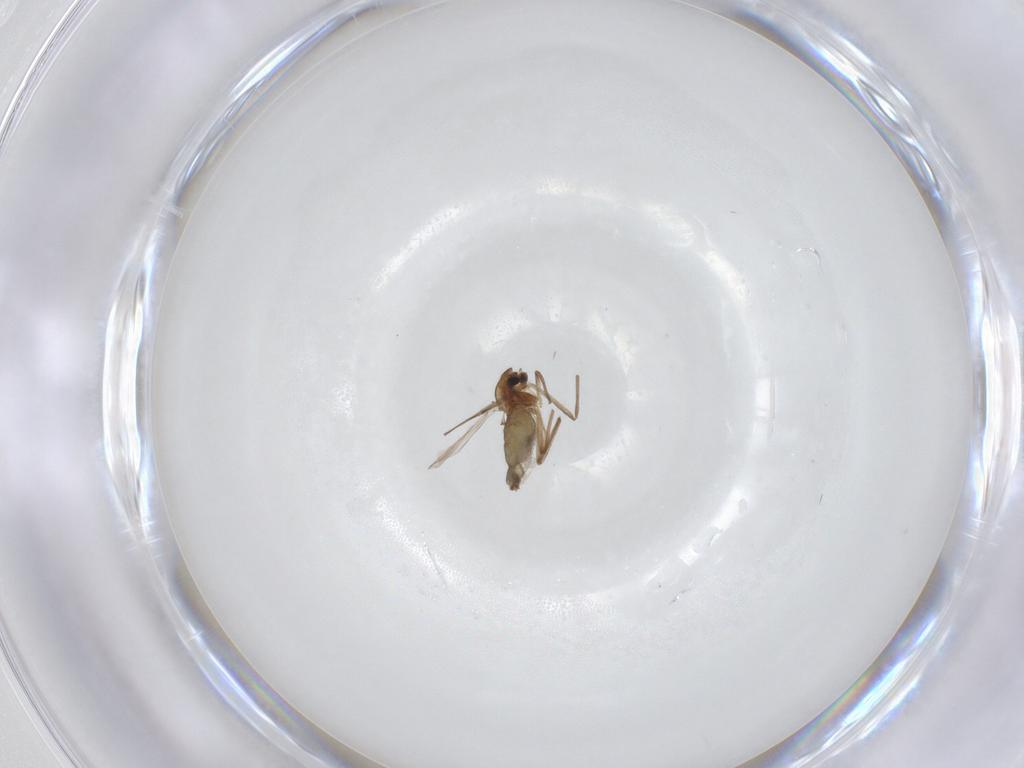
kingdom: Animalia
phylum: Arthropoda
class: Insecta
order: Diptera
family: Chironomidae
